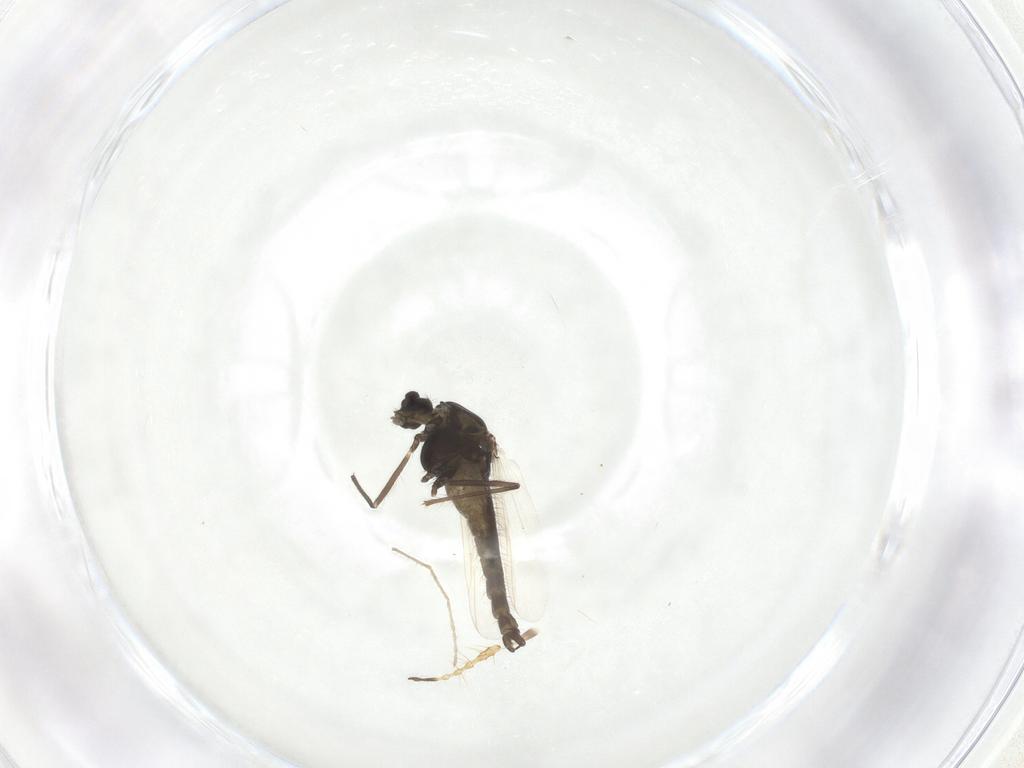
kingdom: Animalia
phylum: Arthropoda
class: Insecta
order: Diptera
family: Chironomidae
